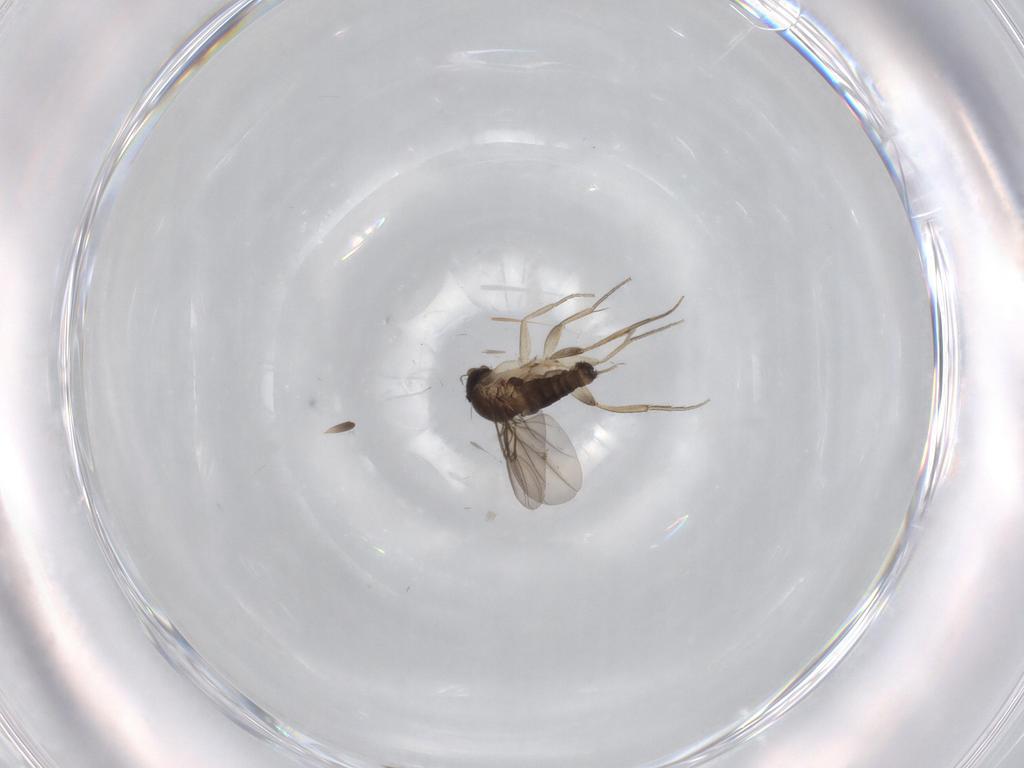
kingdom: Animalia
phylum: Arthropoda
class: Insecta
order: Diptera
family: Phoridae
